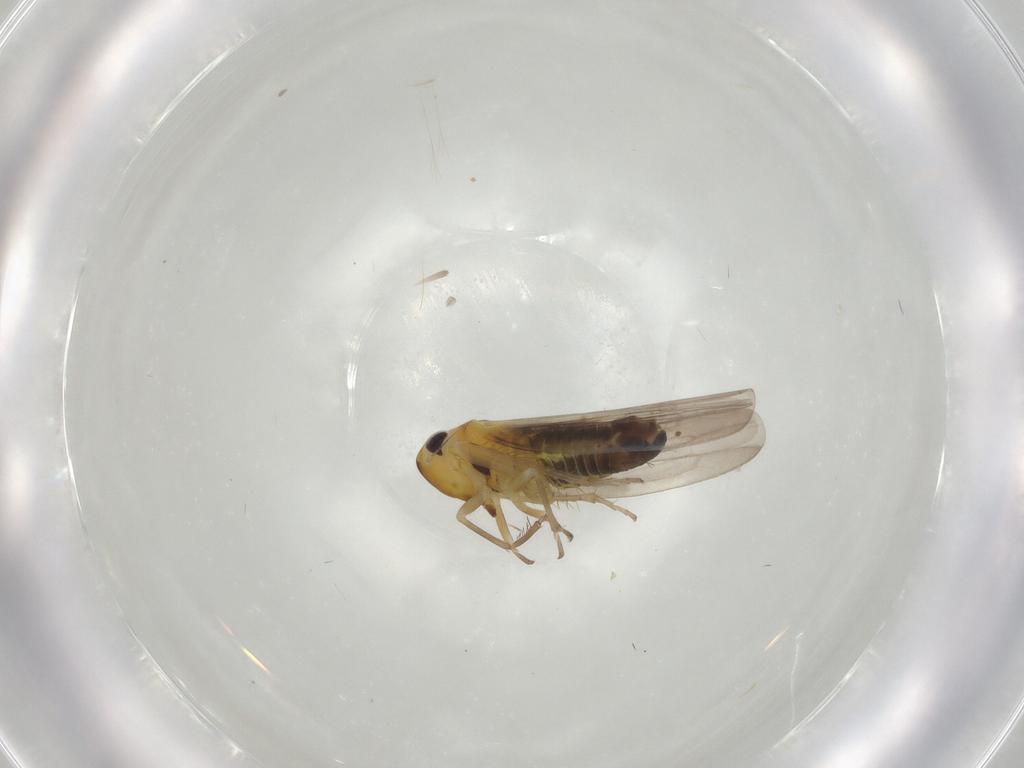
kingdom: Animalia
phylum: Arthropoda
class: Insecta
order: Hemiptera
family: Cicadellidae
